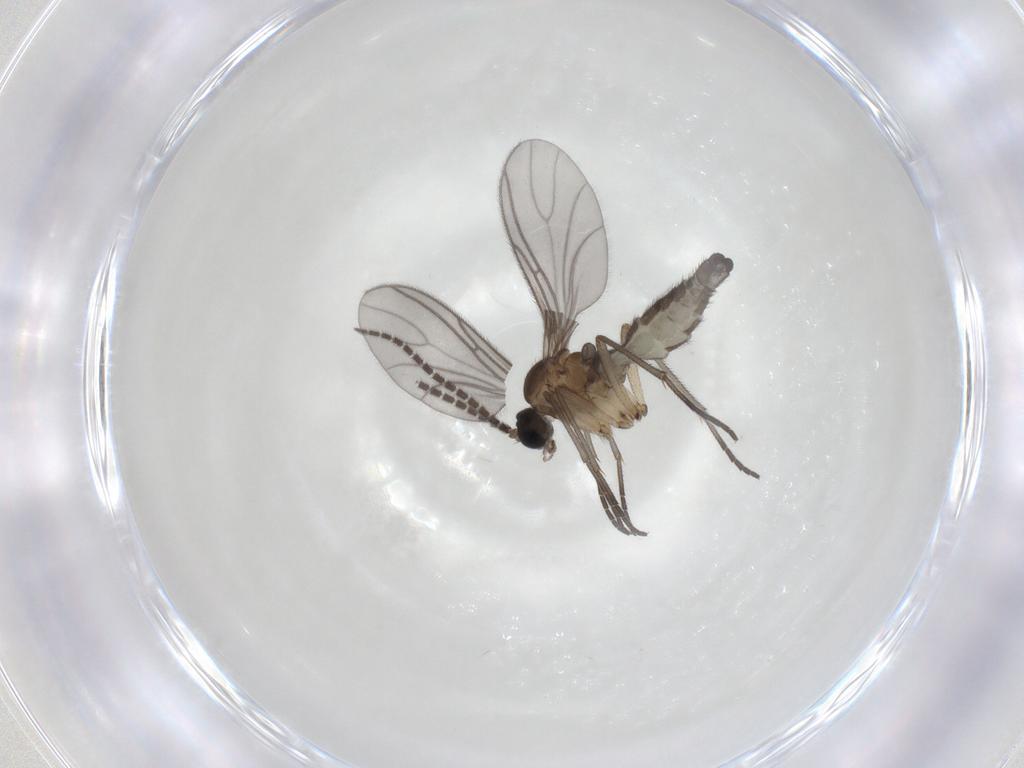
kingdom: Animalia
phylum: Arthropoda
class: Insecta
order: Diptera
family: Sciaridae
